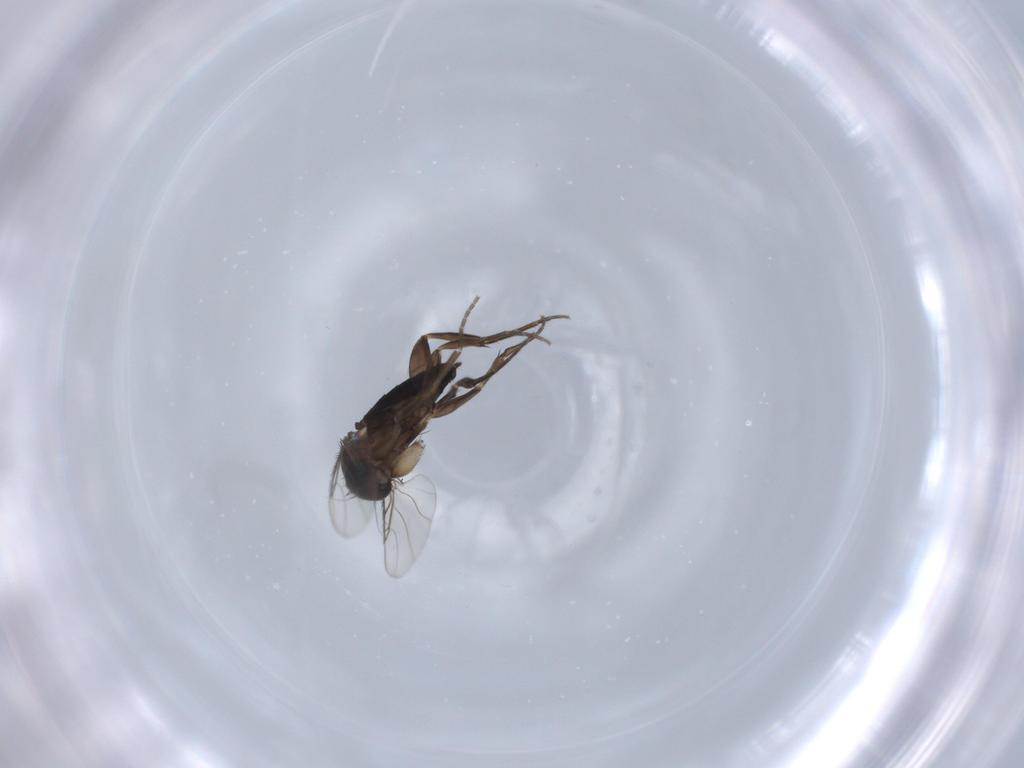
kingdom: Animalia
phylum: Arthropoda
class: Insecta
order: Diptera
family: Phoridae
